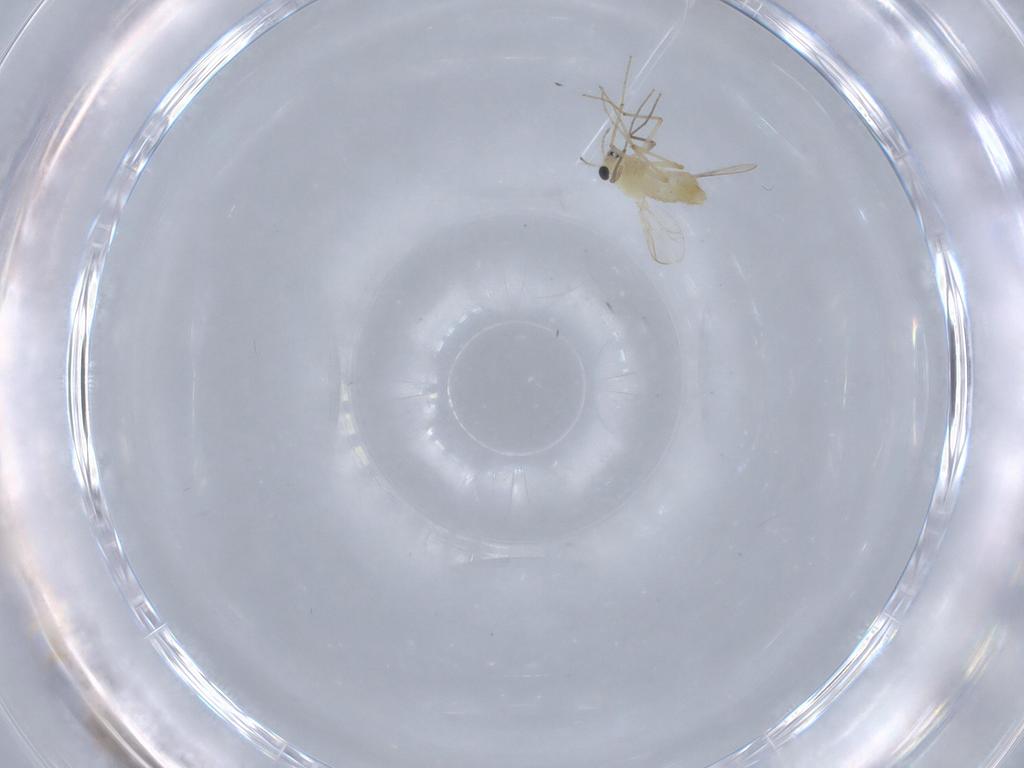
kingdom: Animalia
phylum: Arthropoda
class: Insecta
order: Diptera
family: Chironomidae
